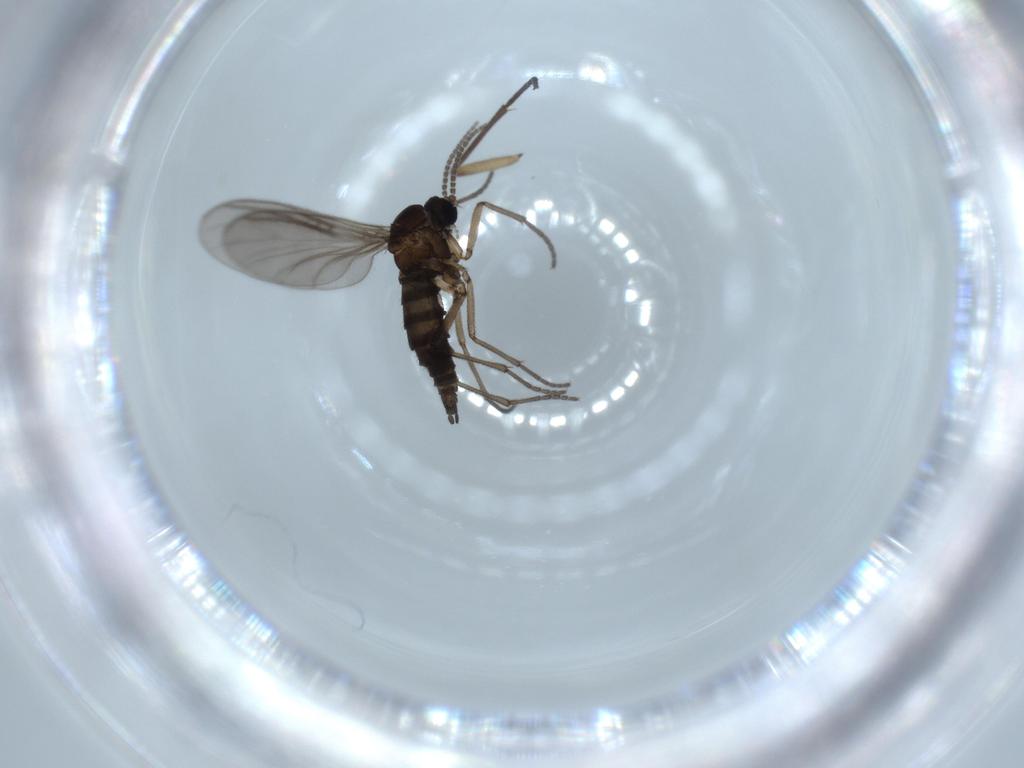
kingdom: Animalia
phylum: Arthropoda
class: Insecta
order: Diptera
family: Sciaridae
